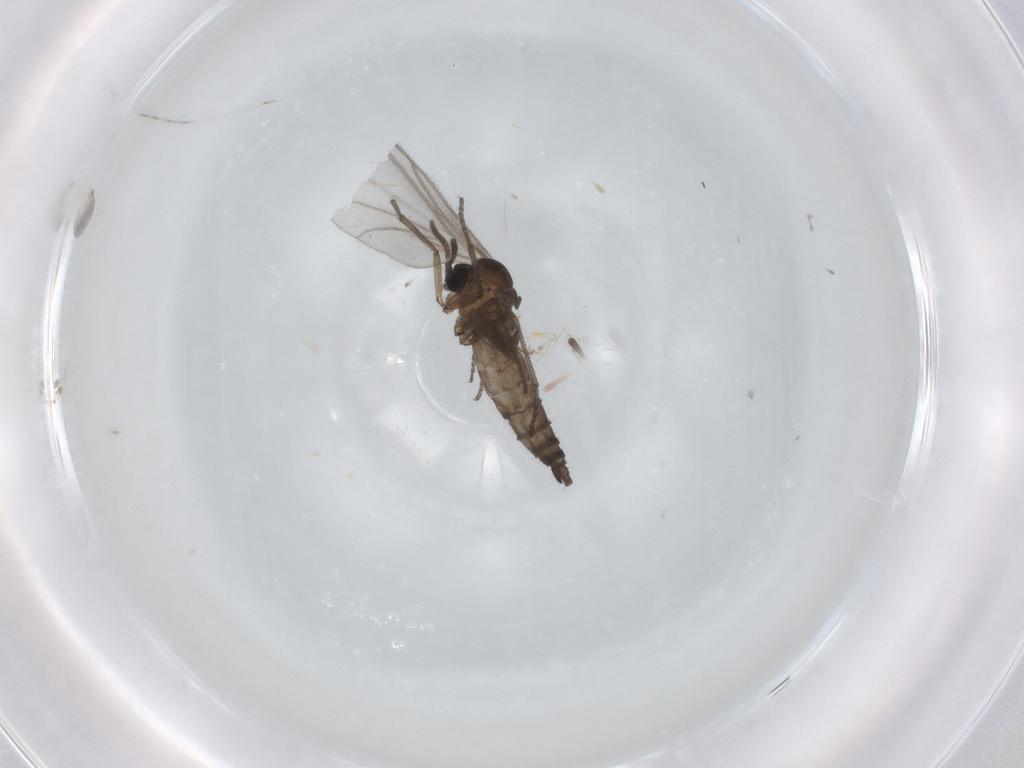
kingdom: Animalia
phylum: Arthropoda
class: Insecta
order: Diptera
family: Sciaridae
